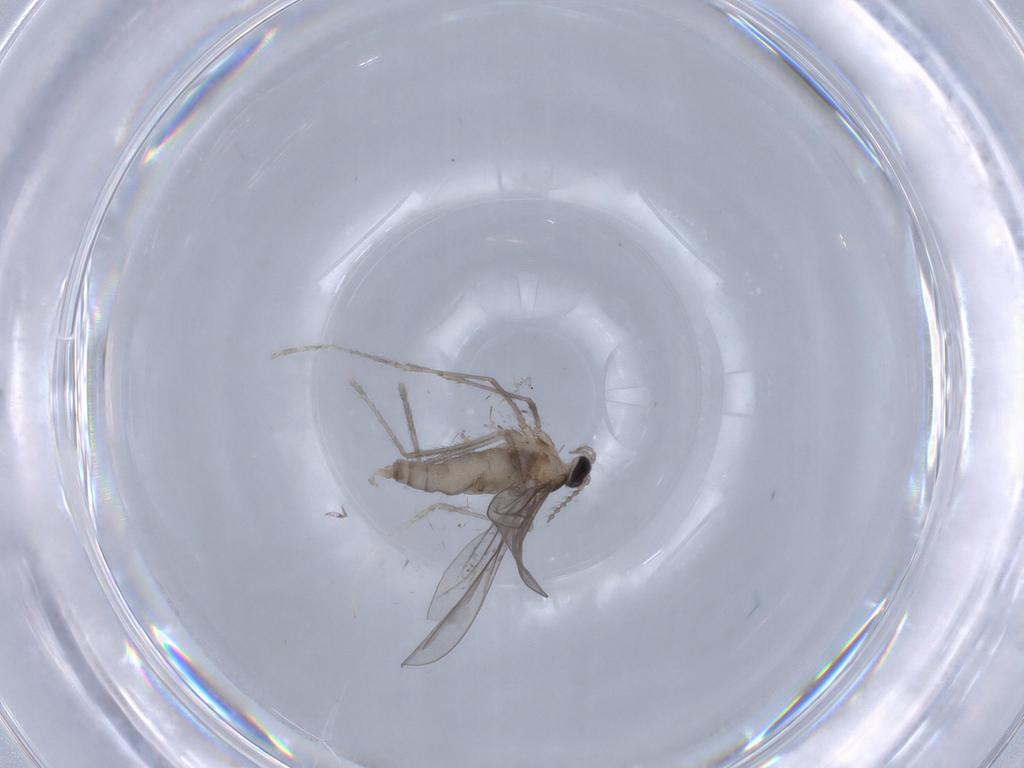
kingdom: Animalia
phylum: Arthropoda
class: Insecta
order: Diptera
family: Cecidomyiidae
